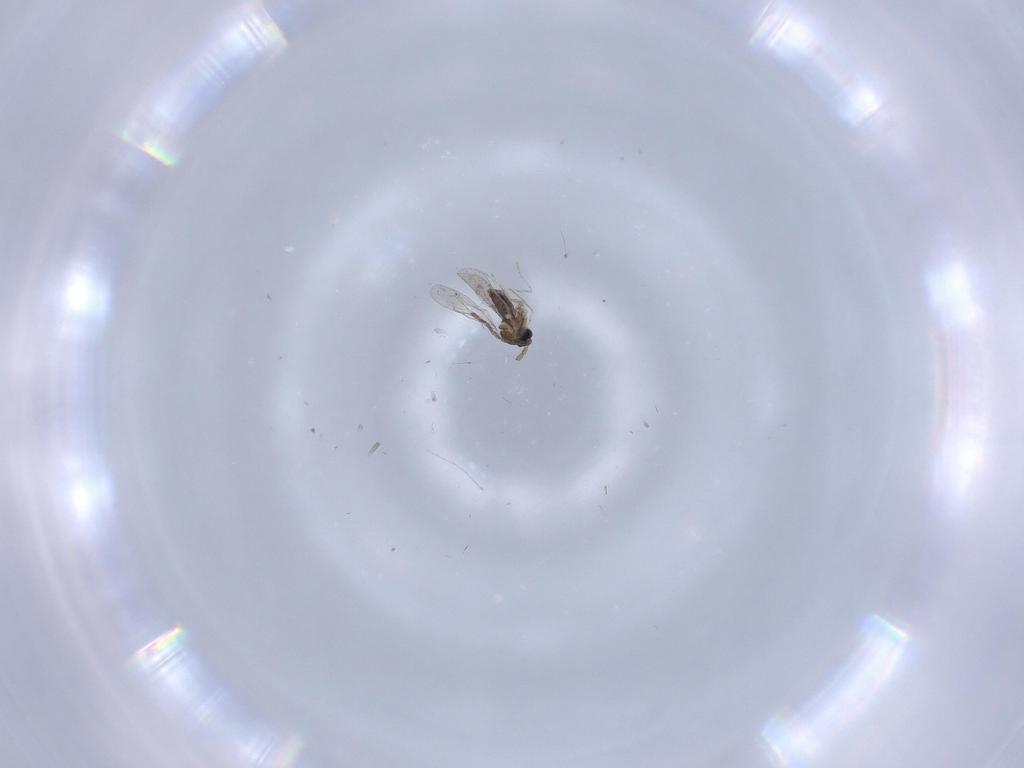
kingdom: Animalia
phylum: Arthropoda
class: Insecta
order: Diptera
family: Cecidomyiidae
